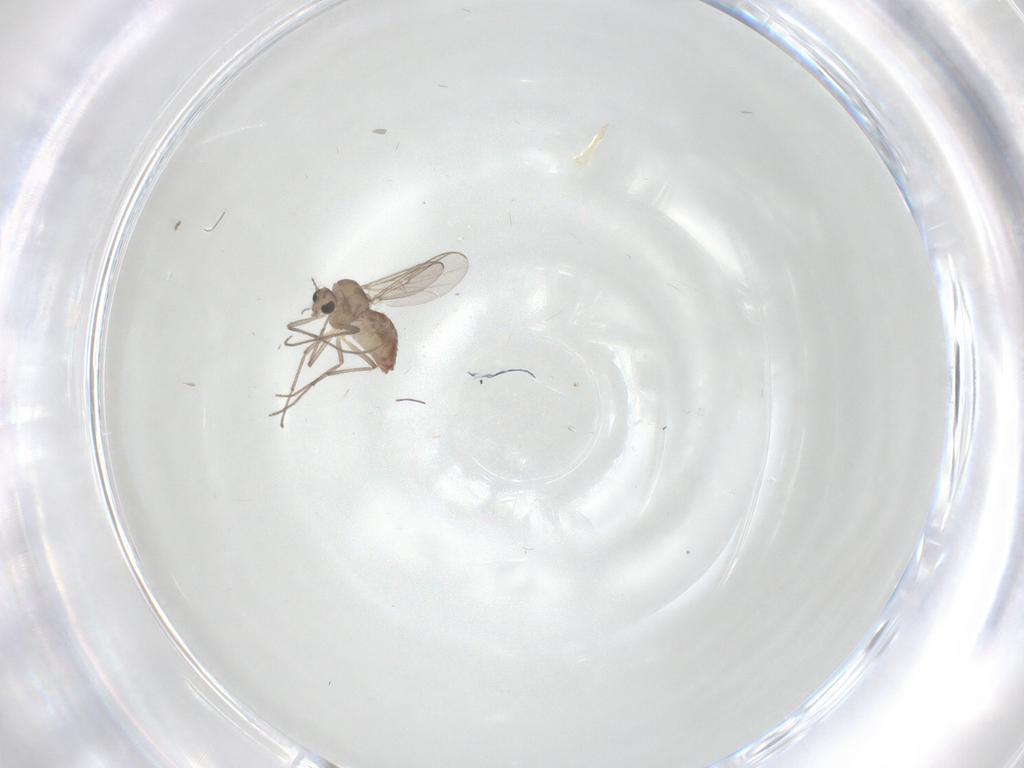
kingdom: Animalia
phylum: Arthropoda
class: Insecta
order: Diptera
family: Chironomidae
